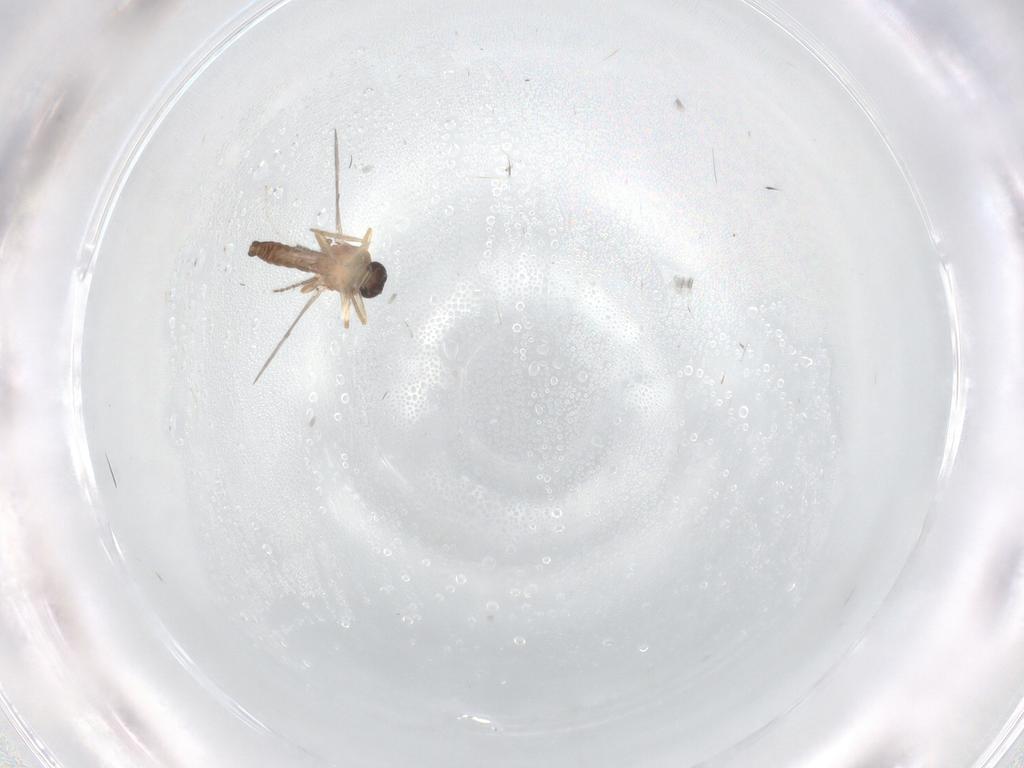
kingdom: Animalia
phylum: Arthropoda
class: Insecta
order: Diptera
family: Ceratopogonidae
